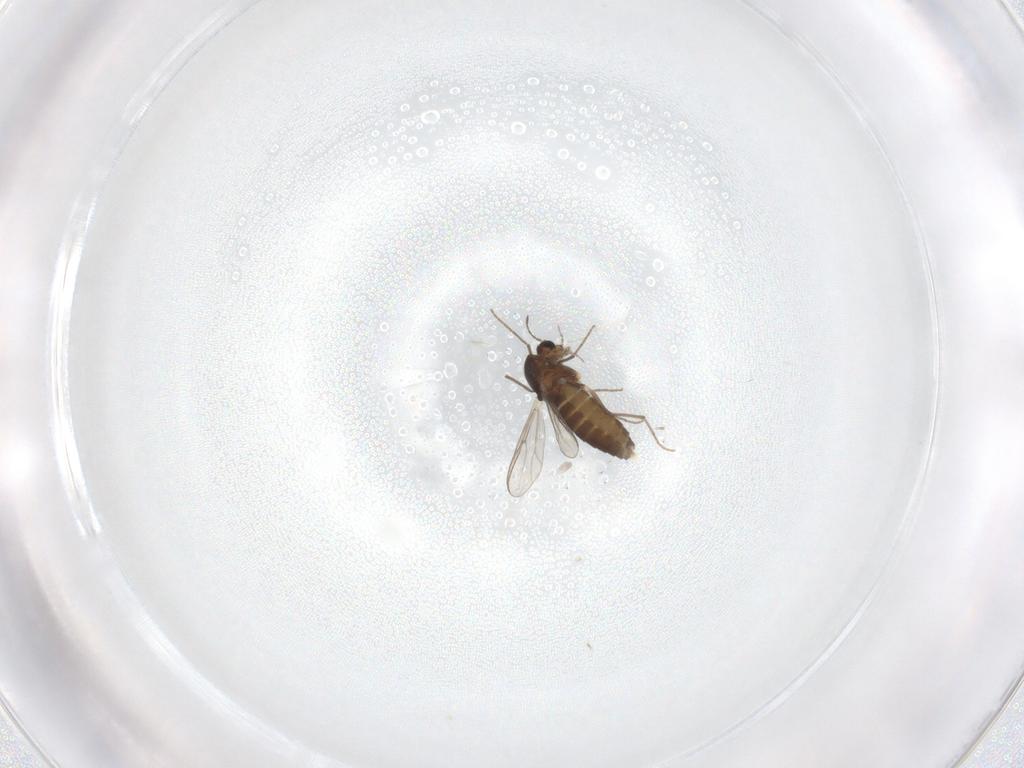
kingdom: Animalia
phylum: Arthropoda
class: Insecta
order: Diptera
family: Chironomidae
